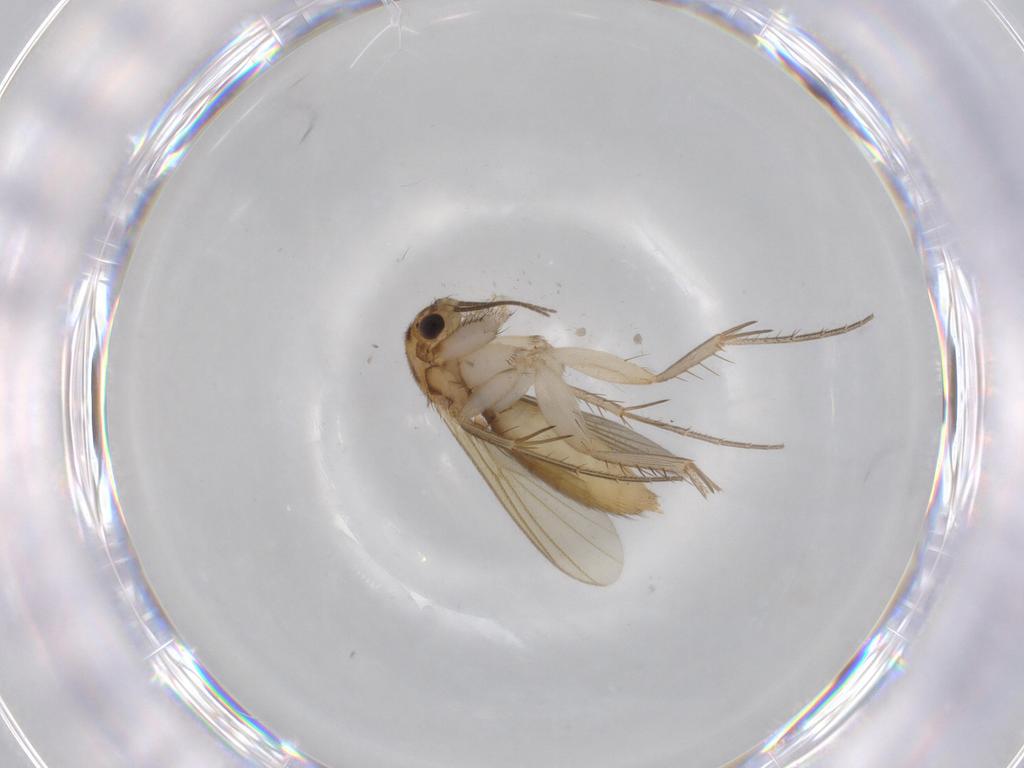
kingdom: Animalia
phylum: Arthropoda
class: Insecta
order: Diptera
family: Mycetophilidae
